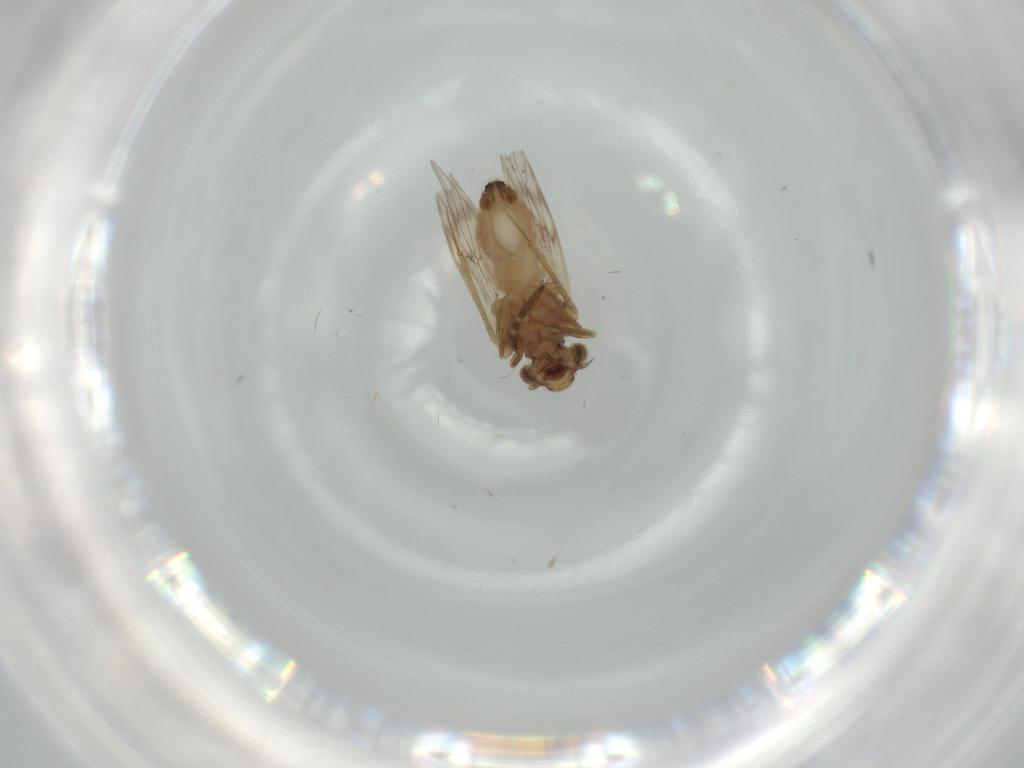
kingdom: Animalia
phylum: Arthropoda
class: Insecta
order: Psocodea
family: Lepidopsocidae
